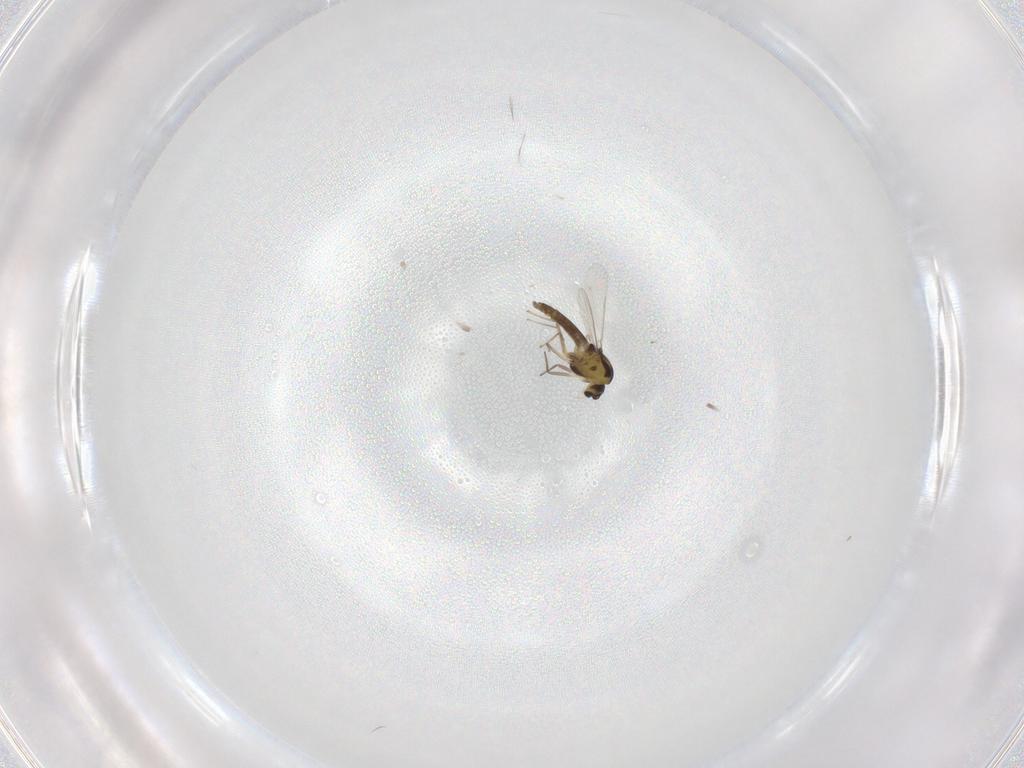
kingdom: Animalia
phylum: Arthropoda
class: Insecta
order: Diptera
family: Chironomidae
